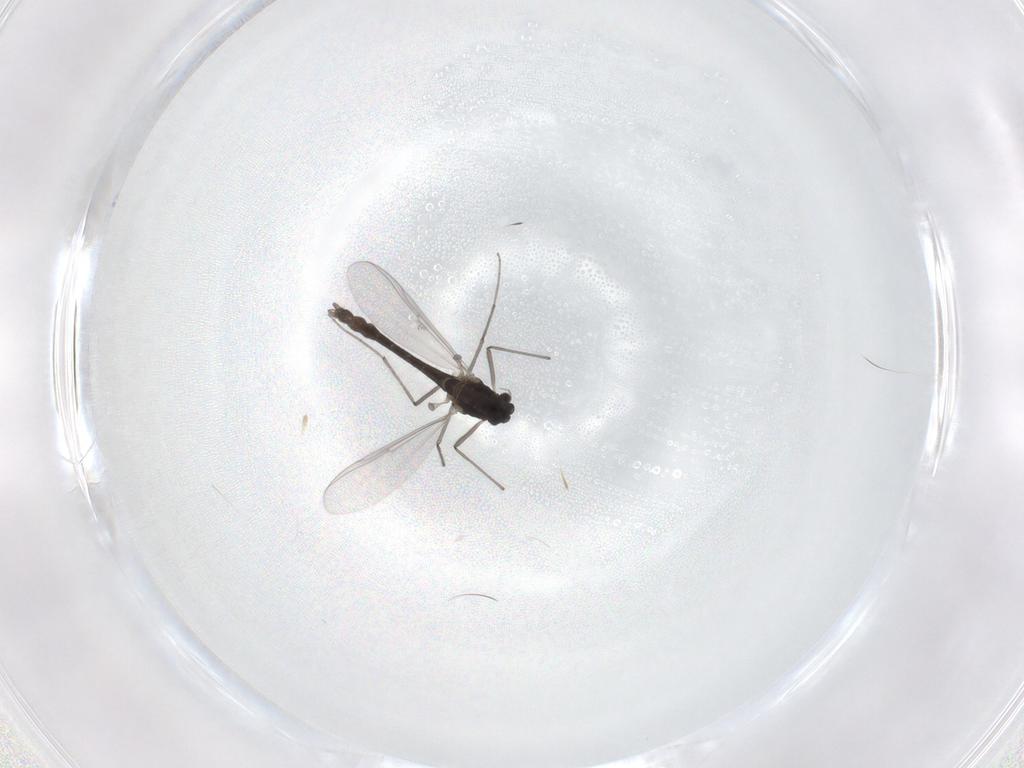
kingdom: Animalia
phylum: Arthropoda
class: Insecta
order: Diptera
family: Chironomidae
